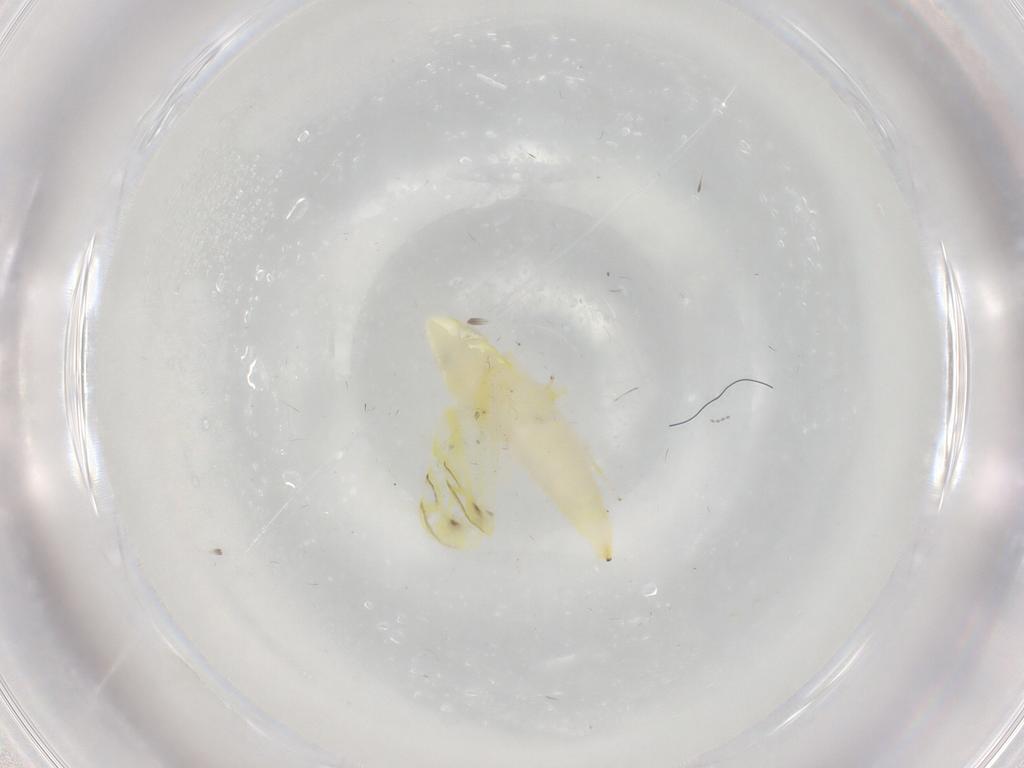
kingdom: Animalia
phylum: Arthropoda
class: Insecta
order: Hemiptera
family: Cicadellidae
